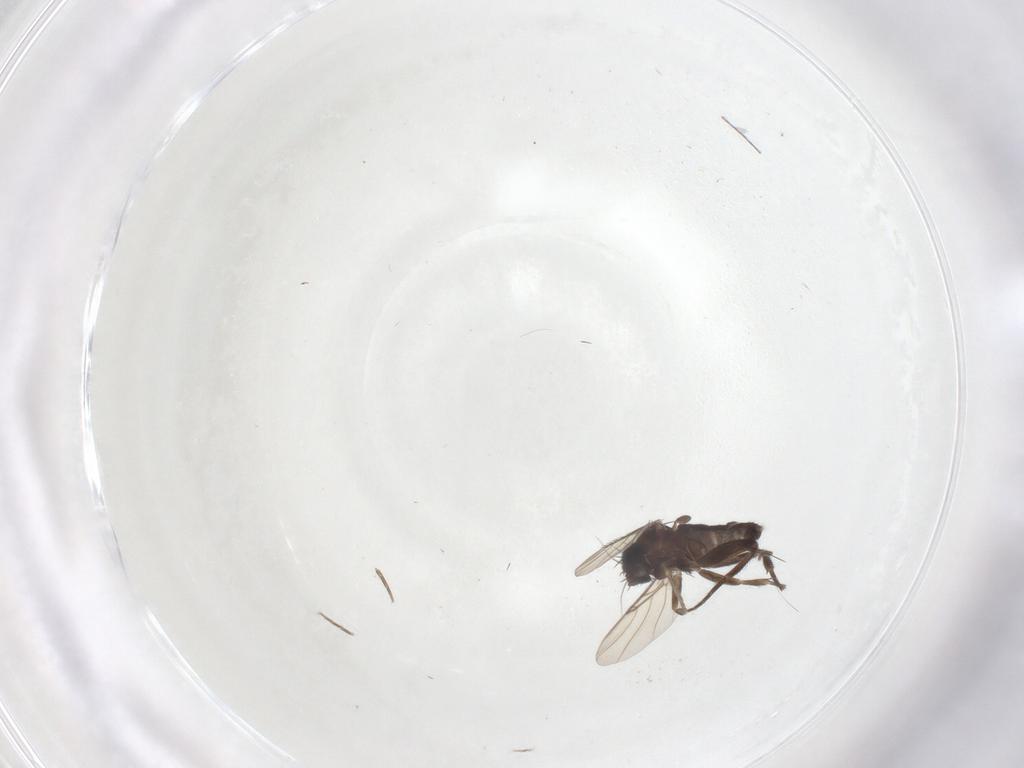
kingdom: Animalia
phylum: Arthropoda
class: Insecta
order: Diptera
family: Phoridae
